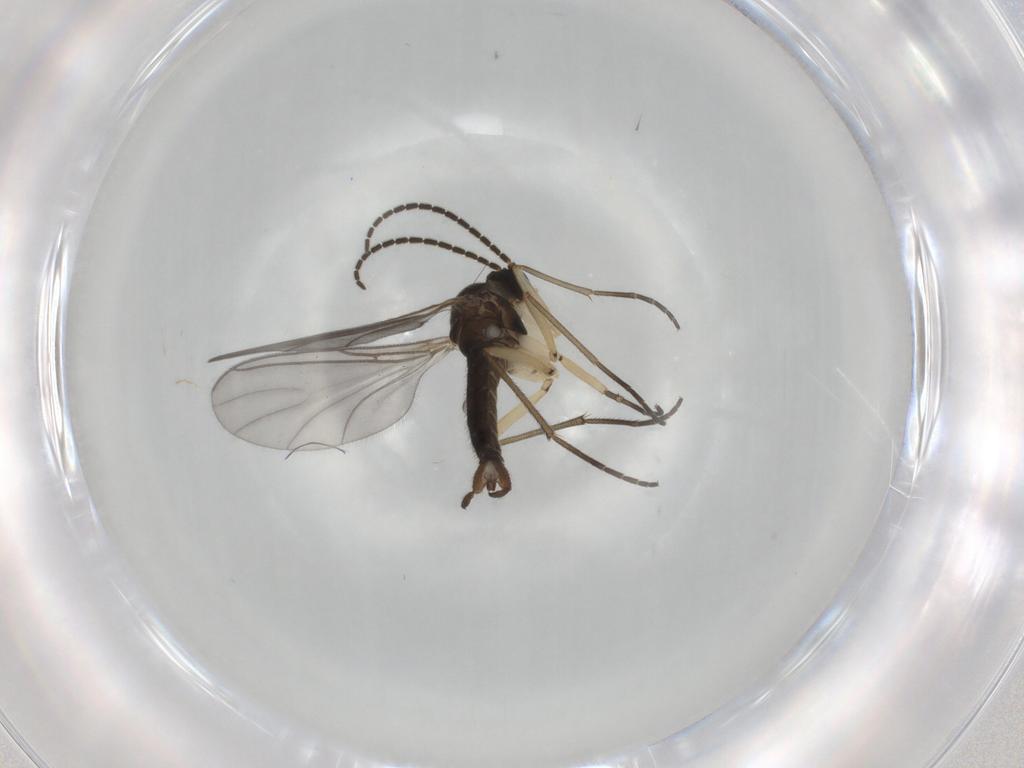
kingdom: Animalia
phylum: Arthropoda
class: Insecta
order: Diptera
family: Sciaridae
